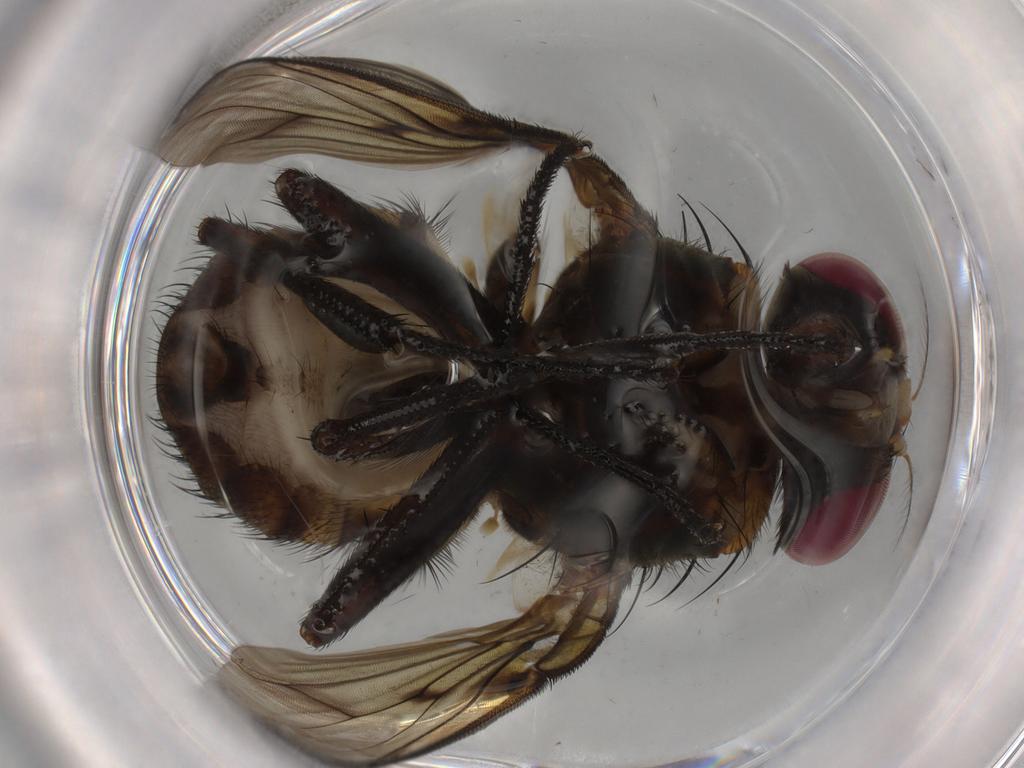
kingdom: Animalia
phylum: Arthropoda
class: Insecta
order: Diptera
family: Muscidae
